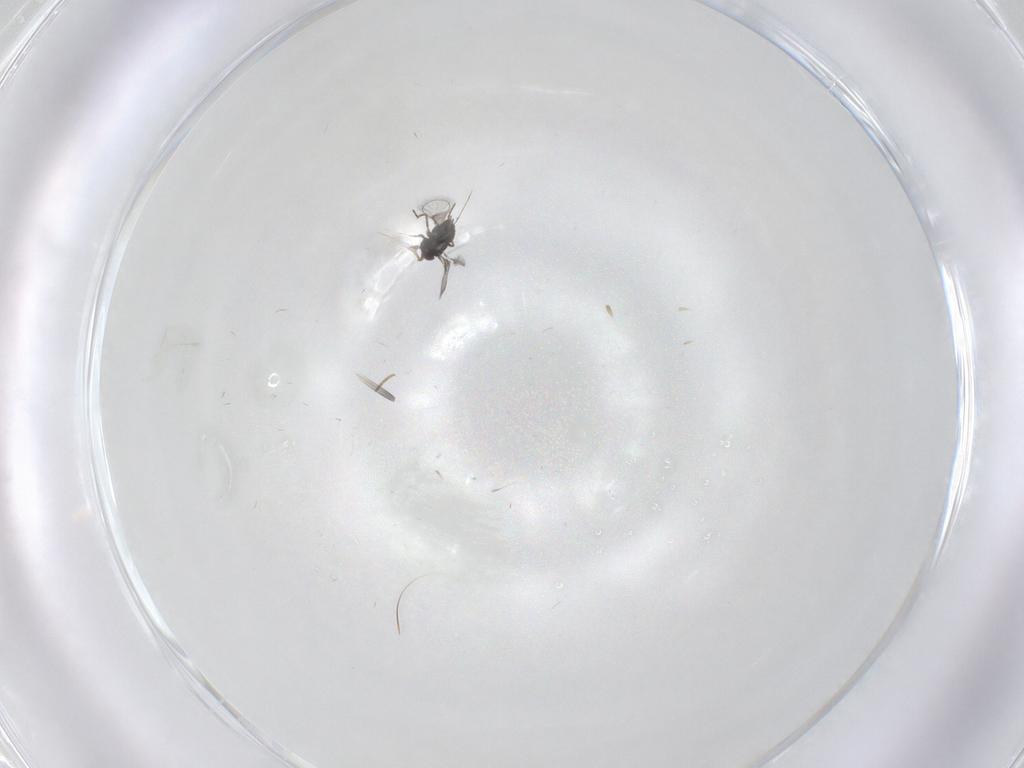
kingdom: Animalia
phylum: Arthropoda
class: Insecta
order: Hymenoptera
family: Trichogrammatidae
